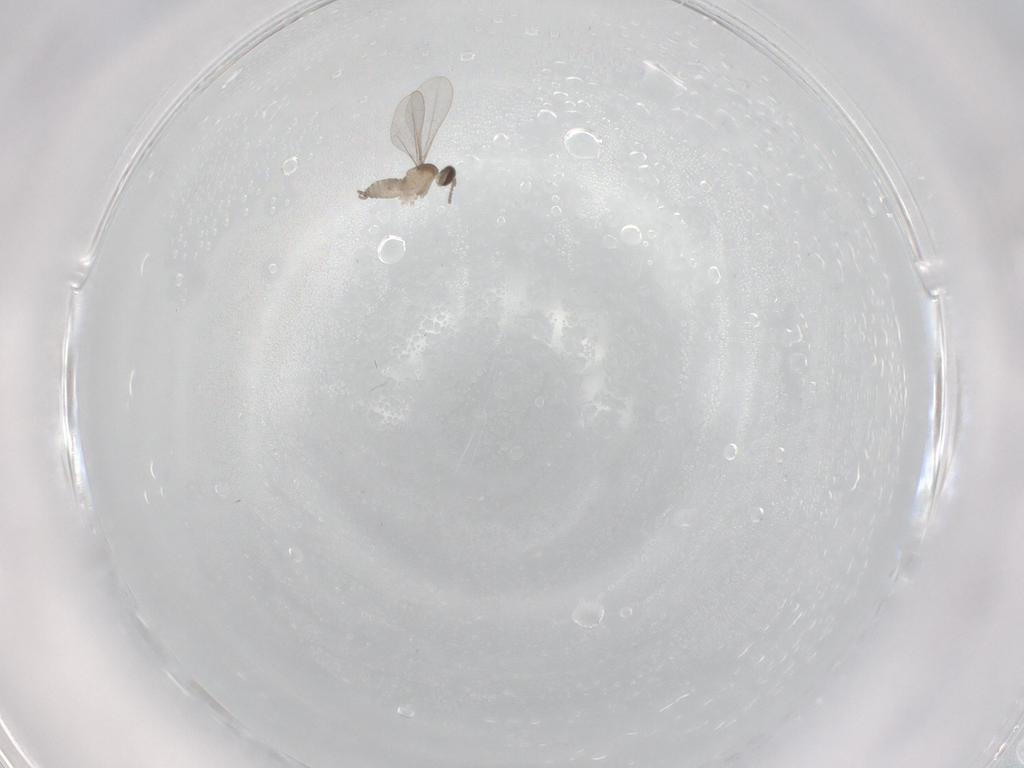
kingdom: Animalia
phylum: Arthropoda
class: Insecta
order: Diptera
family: Cecidomyiidae
